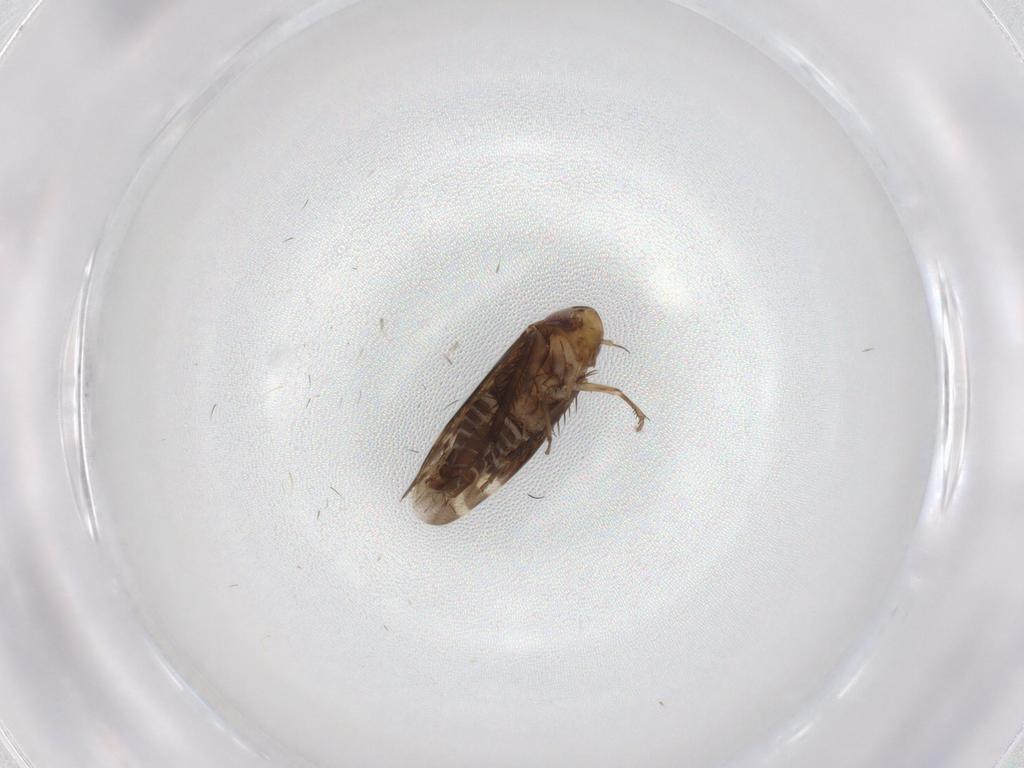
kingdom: Animalia
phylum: Arthropoda
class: Insecta
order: Hemiptera
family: Cicadellidae
